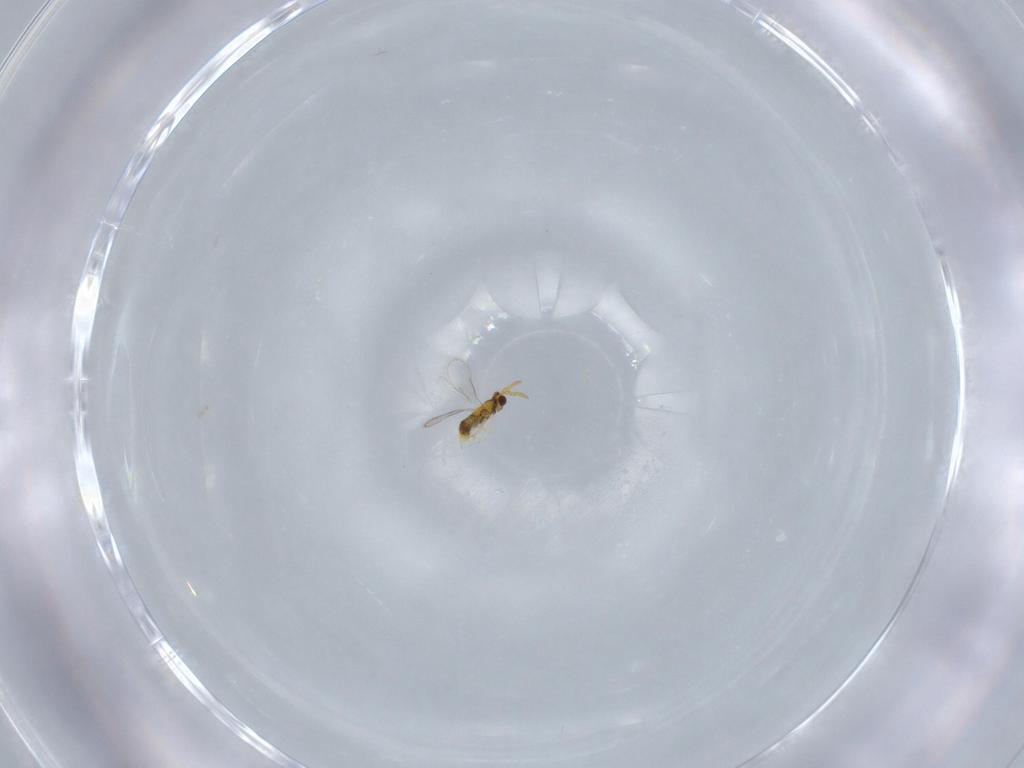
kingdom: Animalia
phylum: Arthropoda
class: Insecta
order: Hymenoptera
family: Aphelinidae
